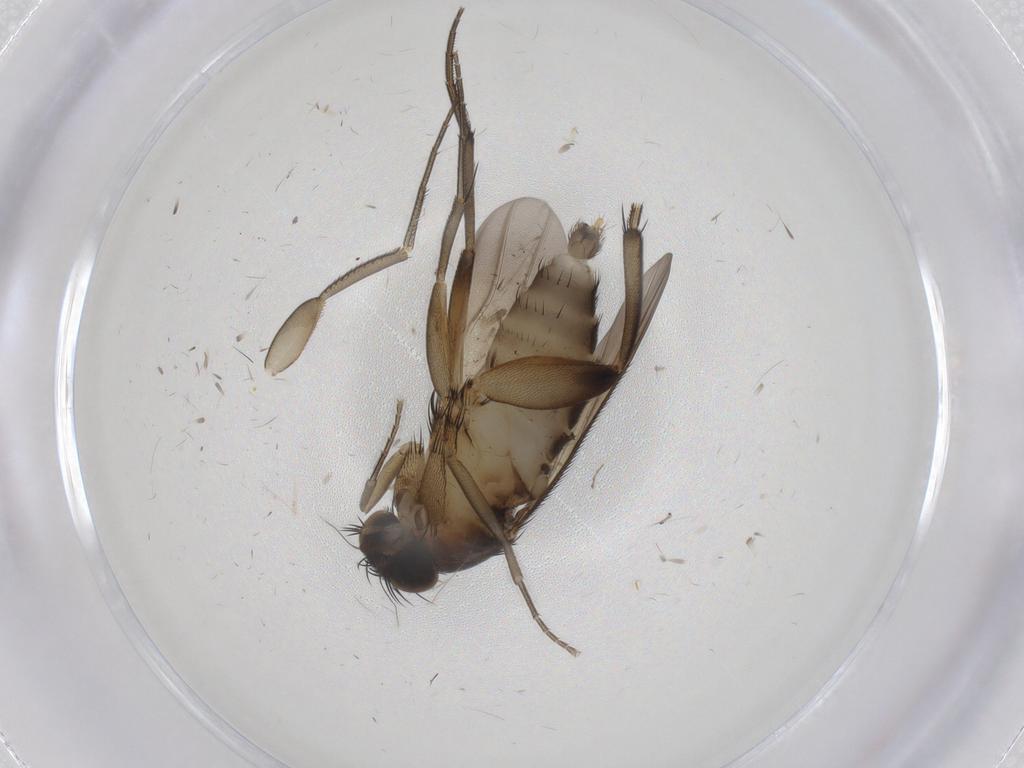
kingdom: Animalia
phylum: Arthropoda
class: Insecta
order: Diptera
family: Phoridae
